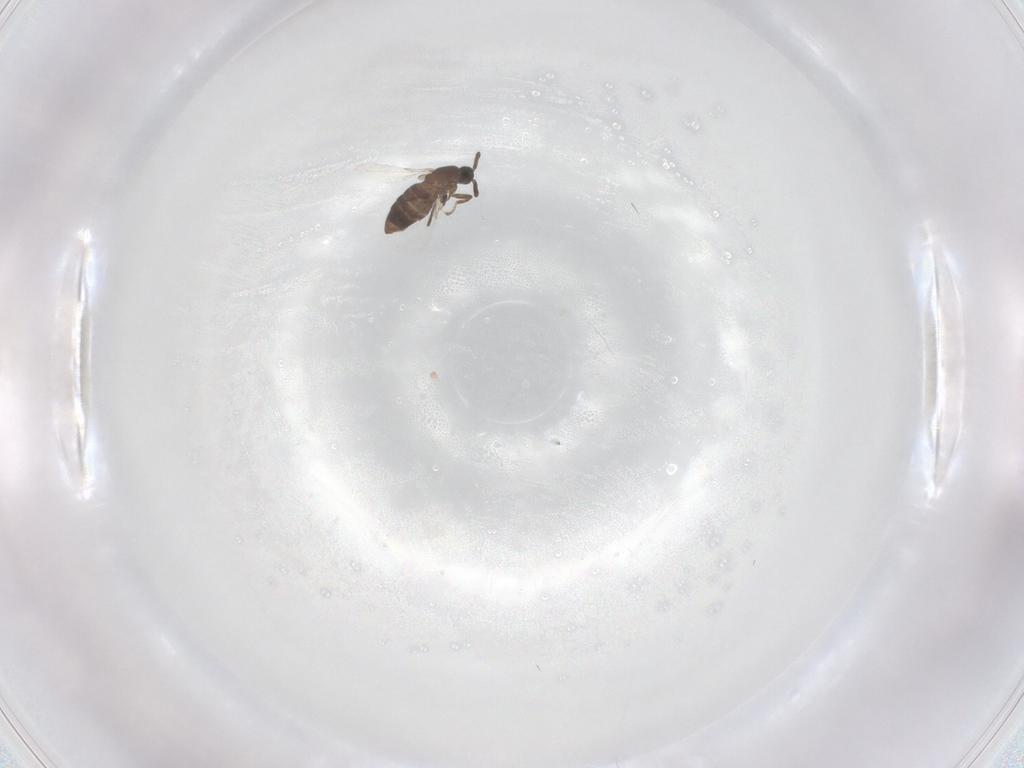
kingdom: Animalia
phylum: Arthropoda
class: Insecta
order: Diptera
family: Scatopsidae
